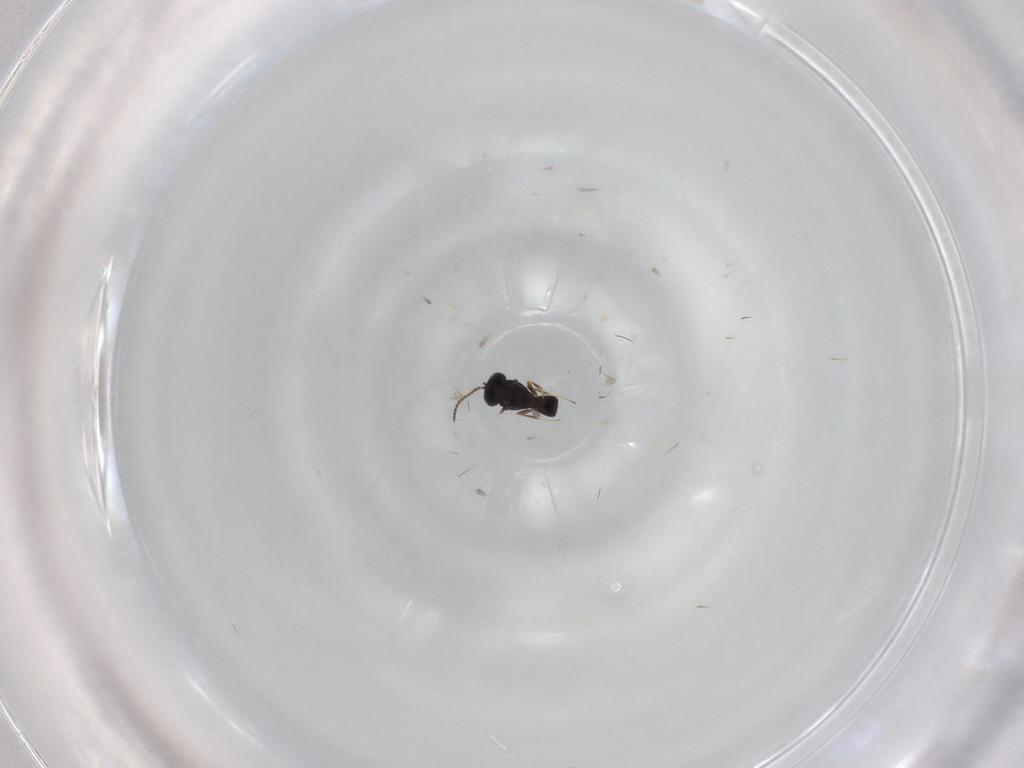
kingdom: Animalia
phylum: Arthropoda
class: Insecta
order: Hymenoptera
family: Scelionidae
